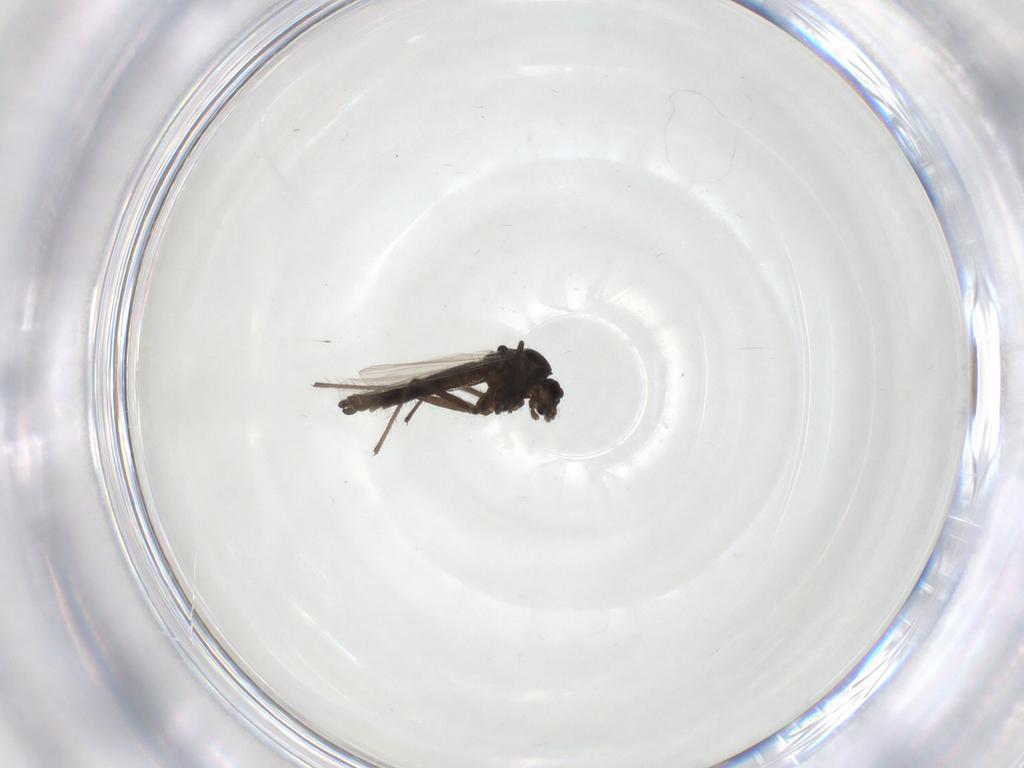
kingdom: Animalia
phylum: Arthropoda
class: Insecta
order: Diptera
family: Chironomidae
